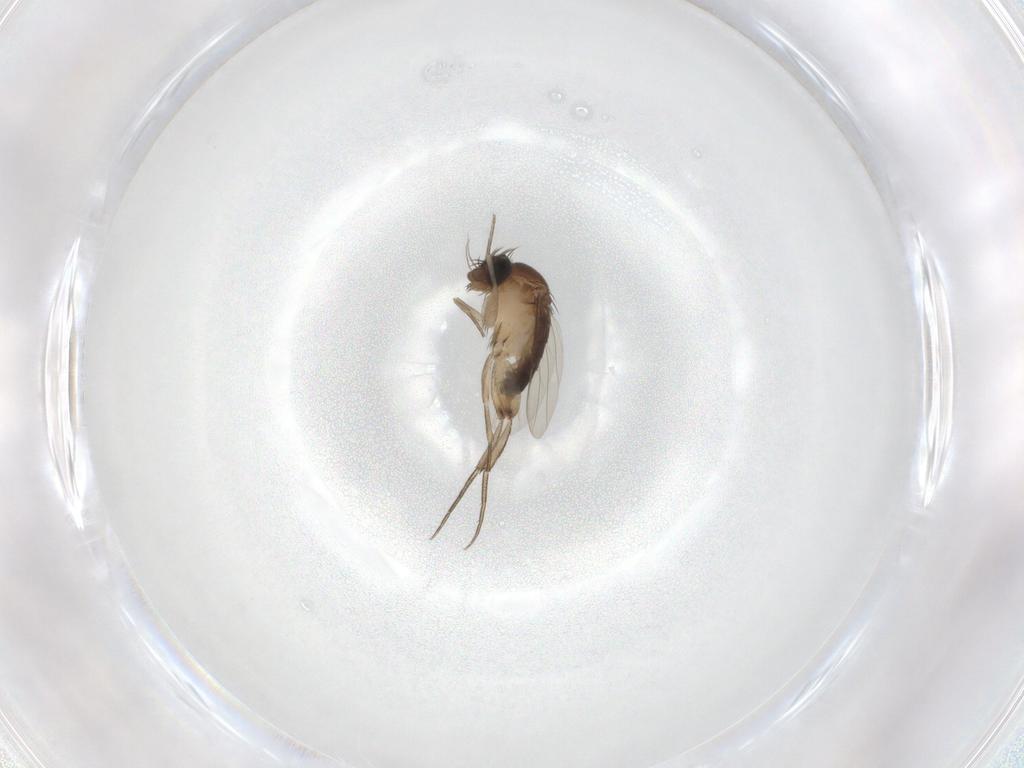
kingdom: Animalia
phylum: Arthropoda
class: Insecta
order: Diptera
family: Phoridae
